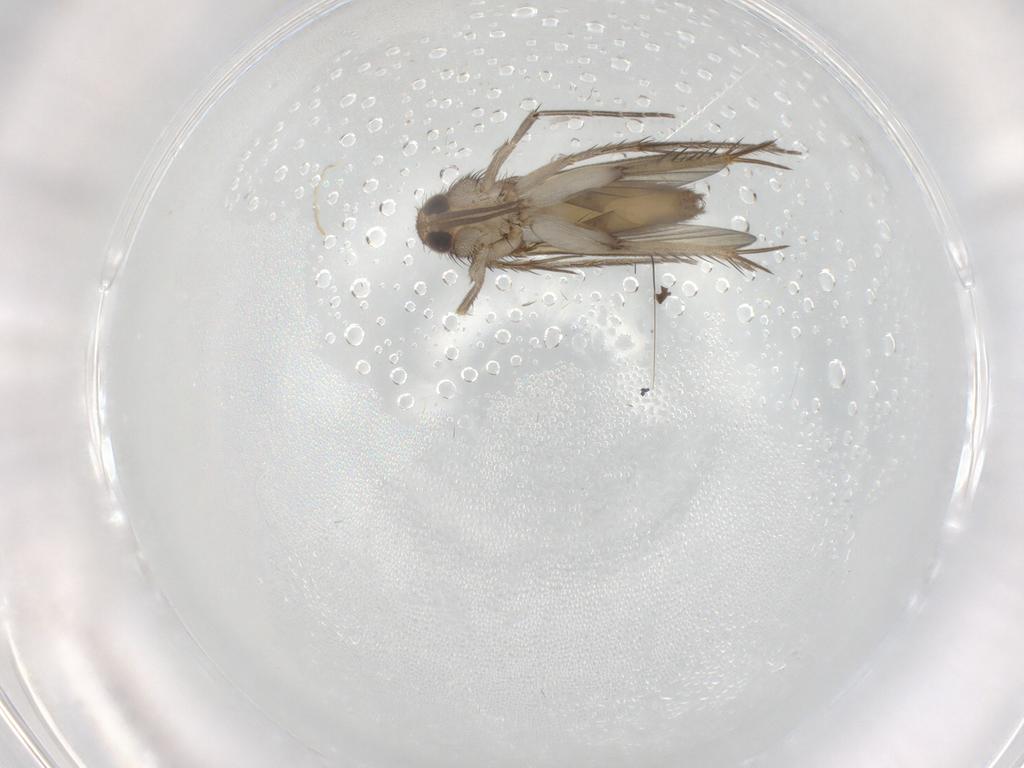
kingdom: Animalia
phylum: Arthropoda
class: Insecta
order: Diptera
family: Mycetophilidae
